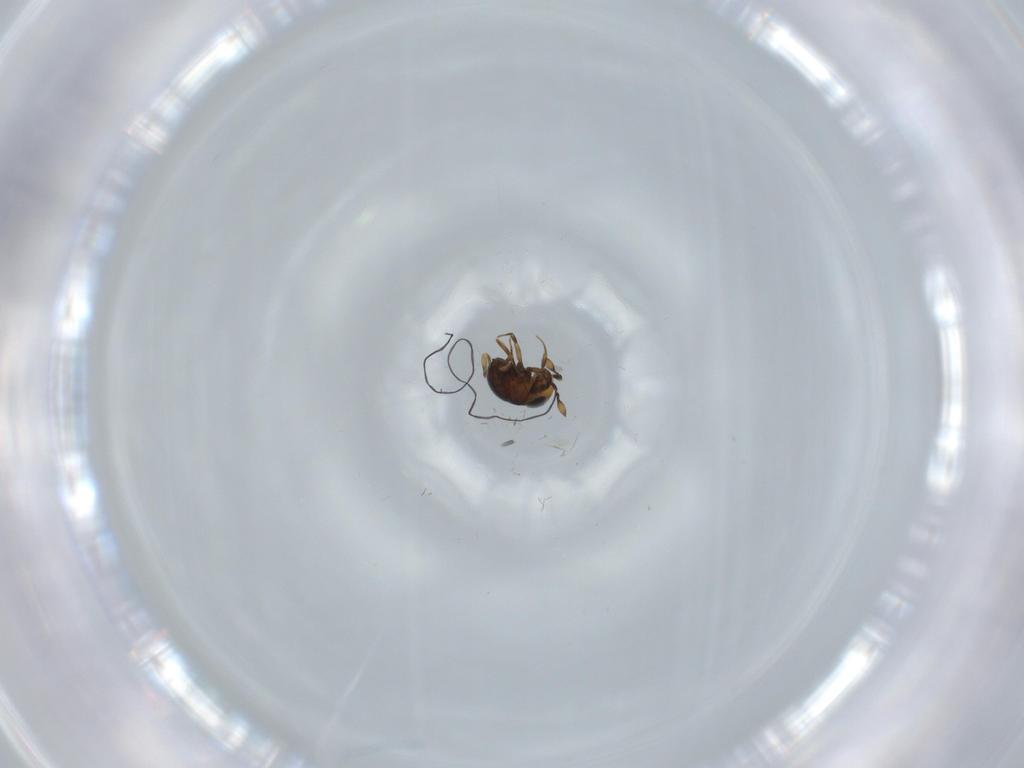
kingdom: Animalia
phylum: Arthropoda
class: Insecta
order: Hymenoptera
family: Scelionidae
